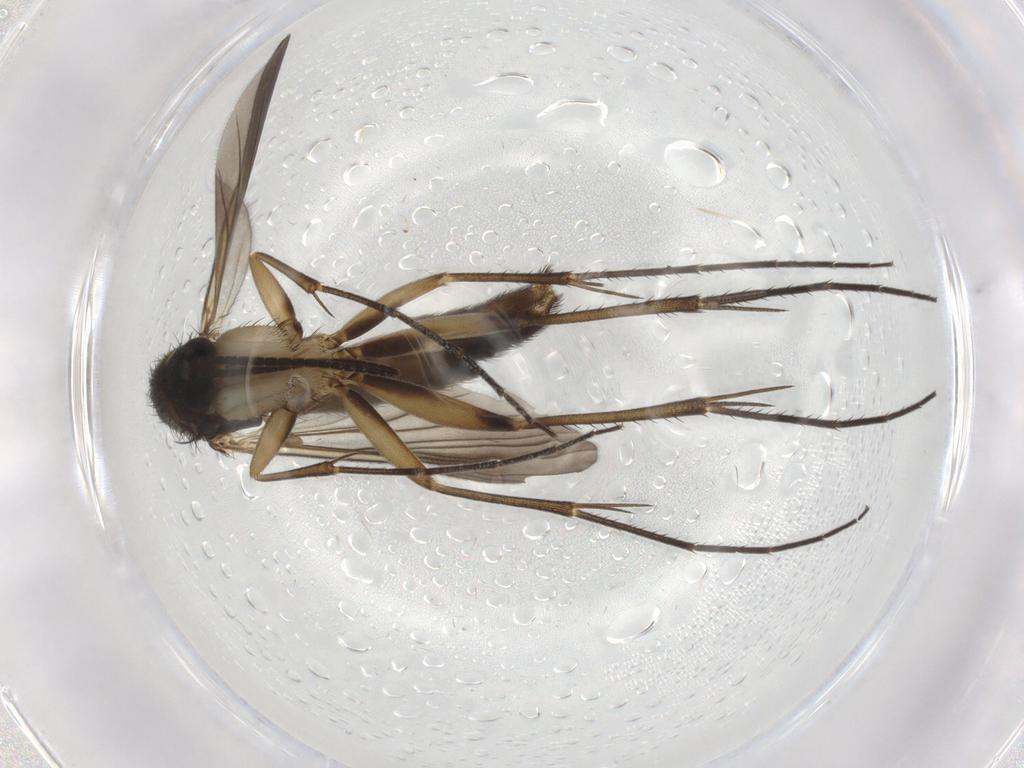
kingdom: Animalia
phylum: Arthropoda
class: Insecta
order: Diptera
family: Mycetophilidae
